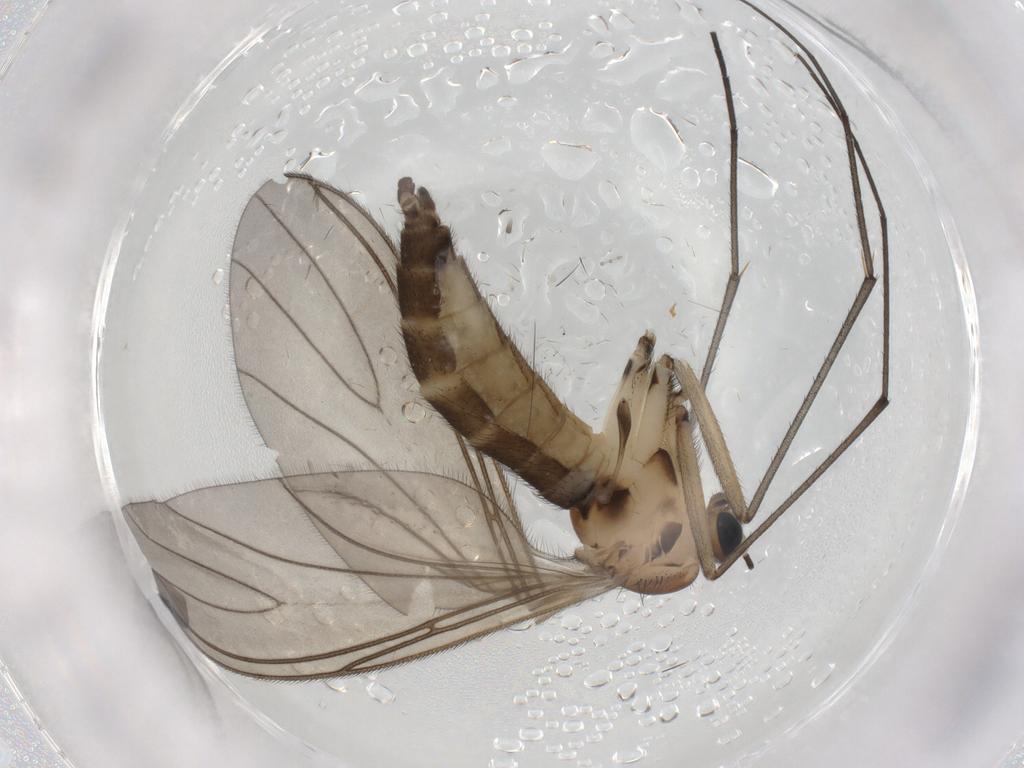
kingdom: Animalia
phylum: Arthropoda
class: Insecta
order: Diptera
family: Sciaridae
